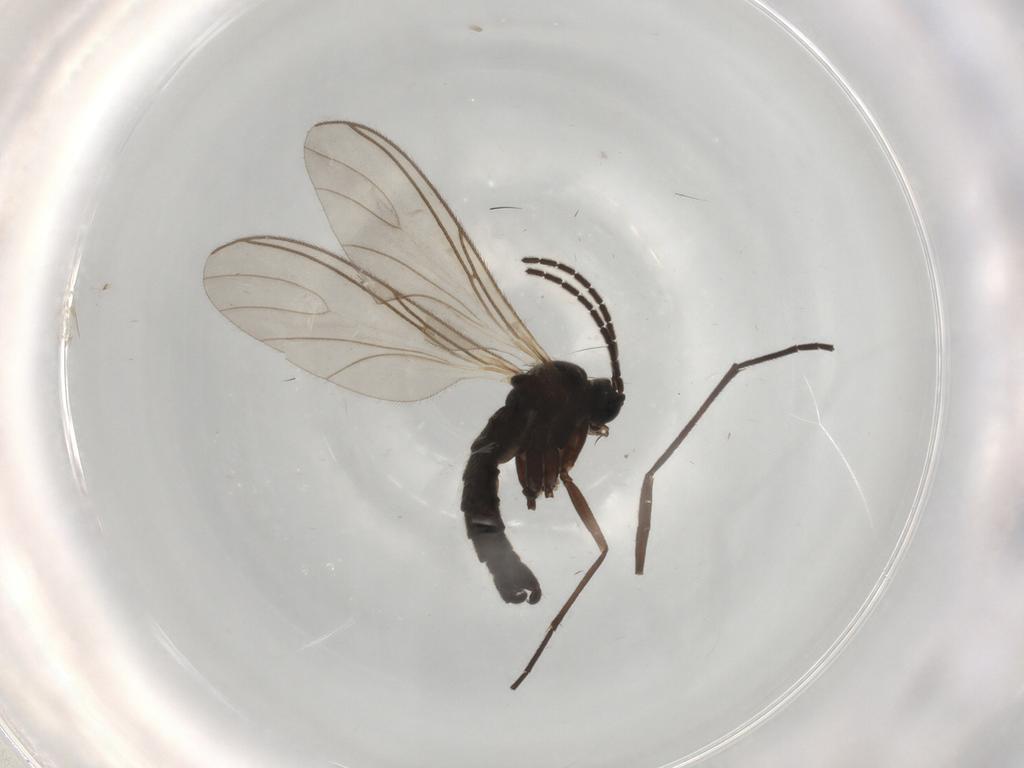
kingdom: Animalia
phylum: Arthropoda
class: Insecta
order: Diptera
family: Sciaridae
